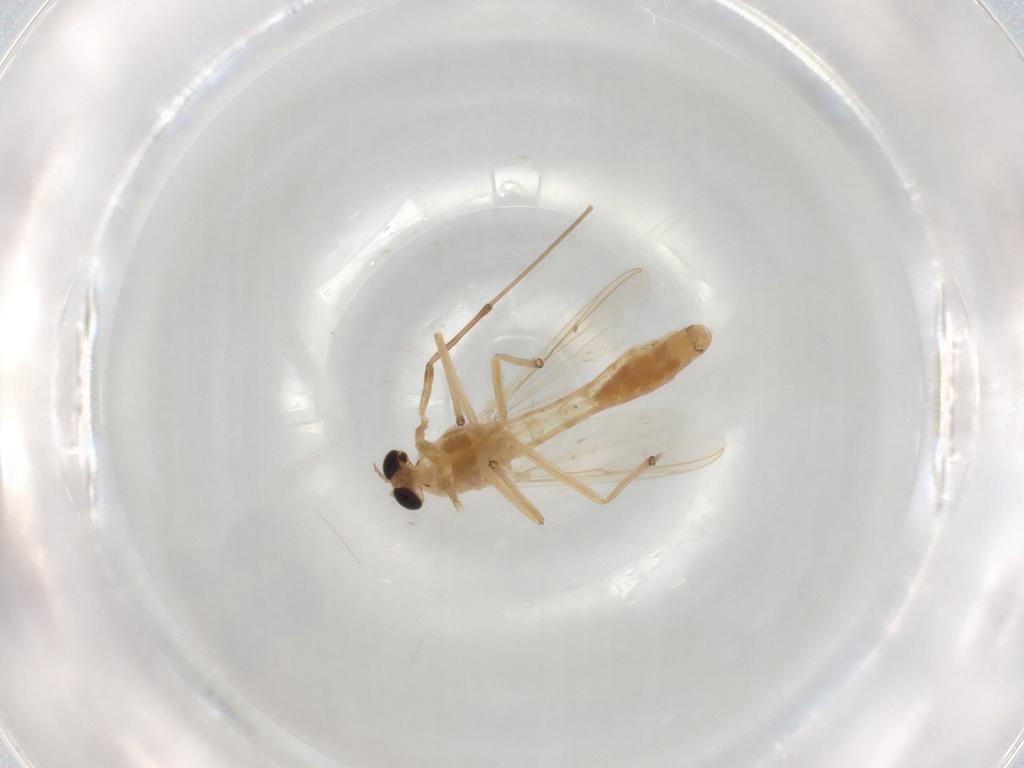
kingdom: Animalia
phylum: Arthropoda
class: Insecta
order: Diptera
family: Chironomidae
